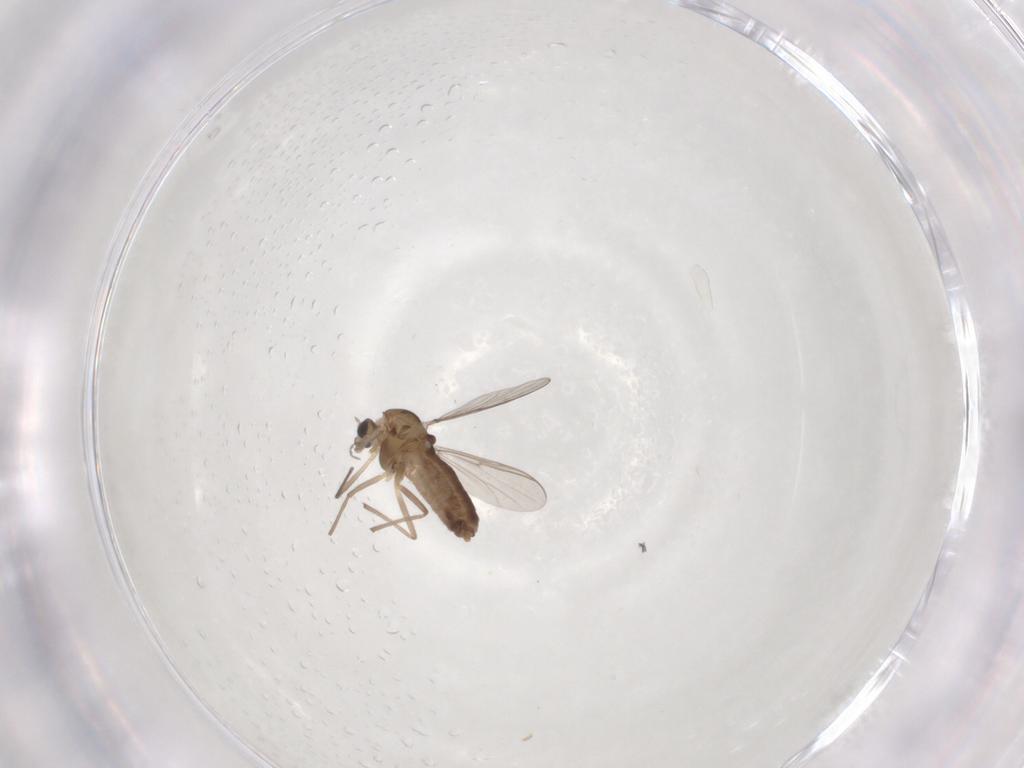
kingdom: Animalia
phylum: Arthropoda
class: Insecta
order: Diptera
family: Chironomidae
